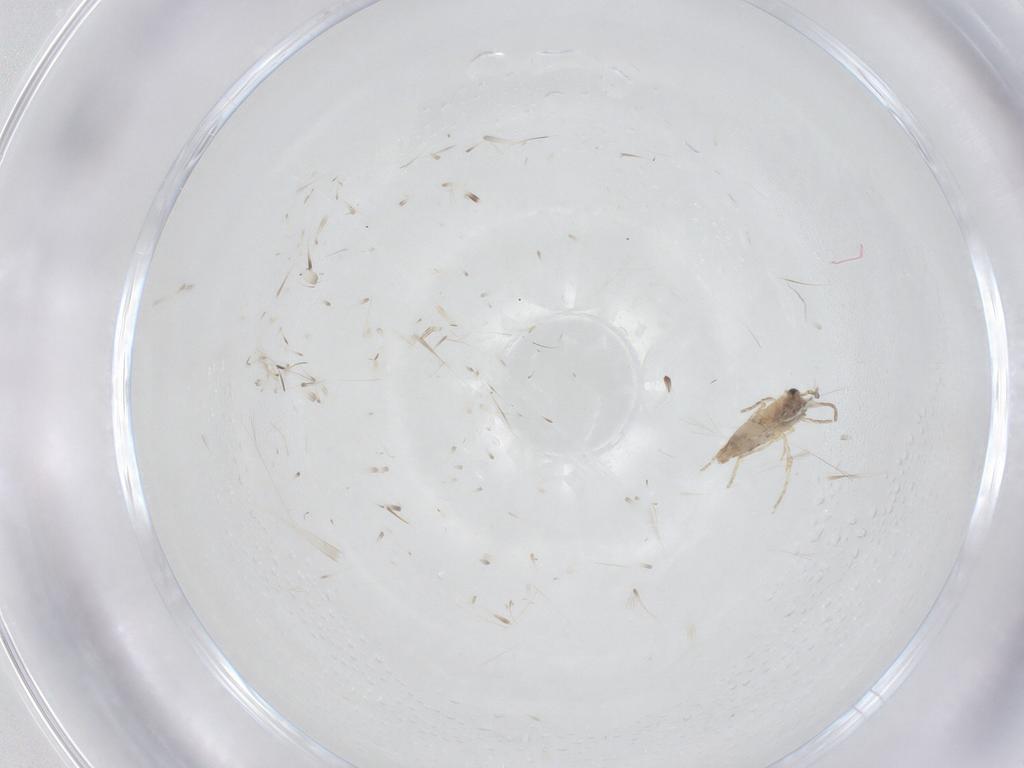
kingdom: Animalia
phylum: Arthropoda
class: Insecta
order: Lepidoptera
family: Nepticulidae
